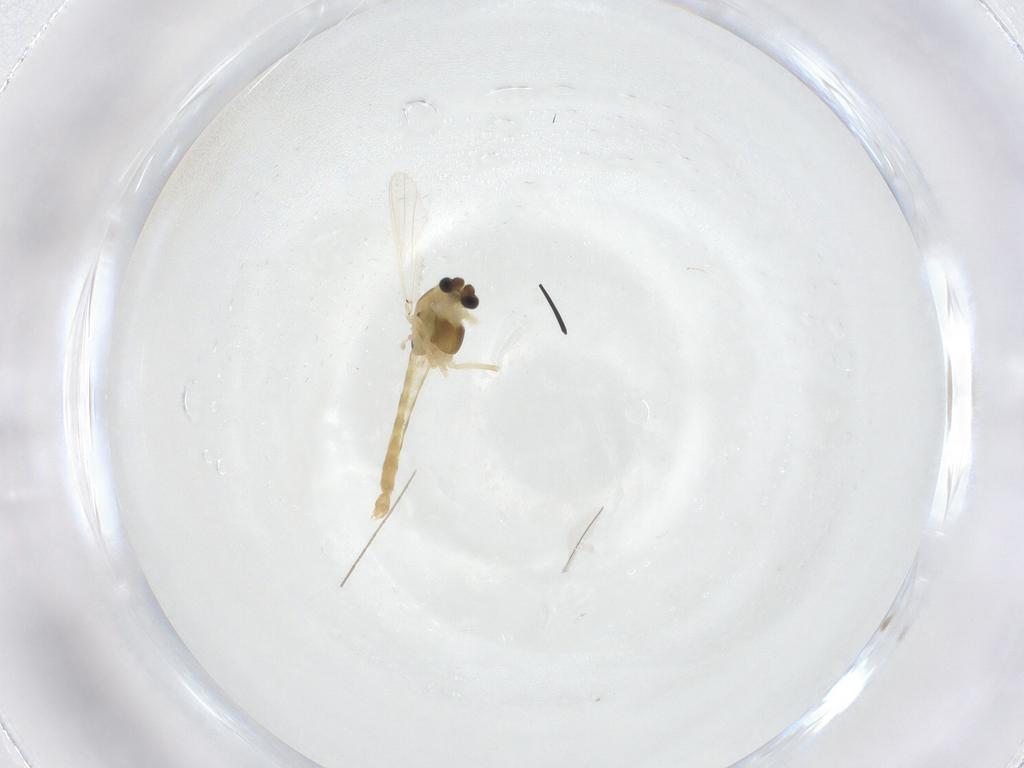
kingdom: Animalia
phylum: Arthropoda
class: Insecta
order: Diptera
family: Chironomidae
